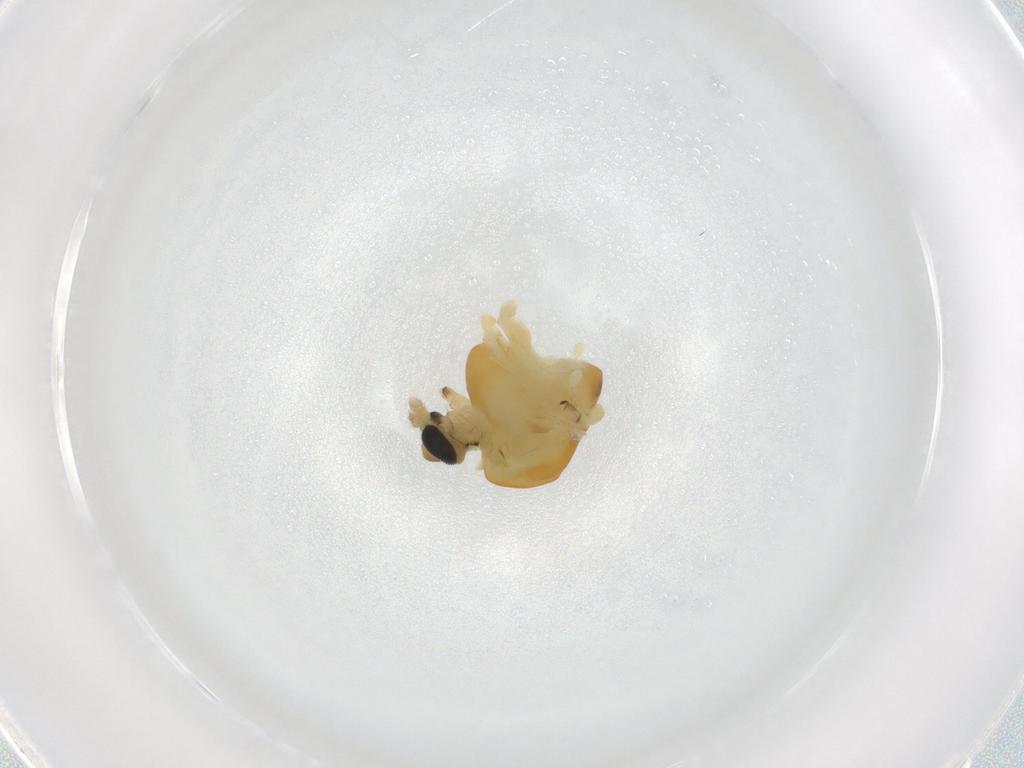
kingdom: Animalia
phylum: Arthropoda
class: Insecta
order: Diptera
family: Chironomidae
